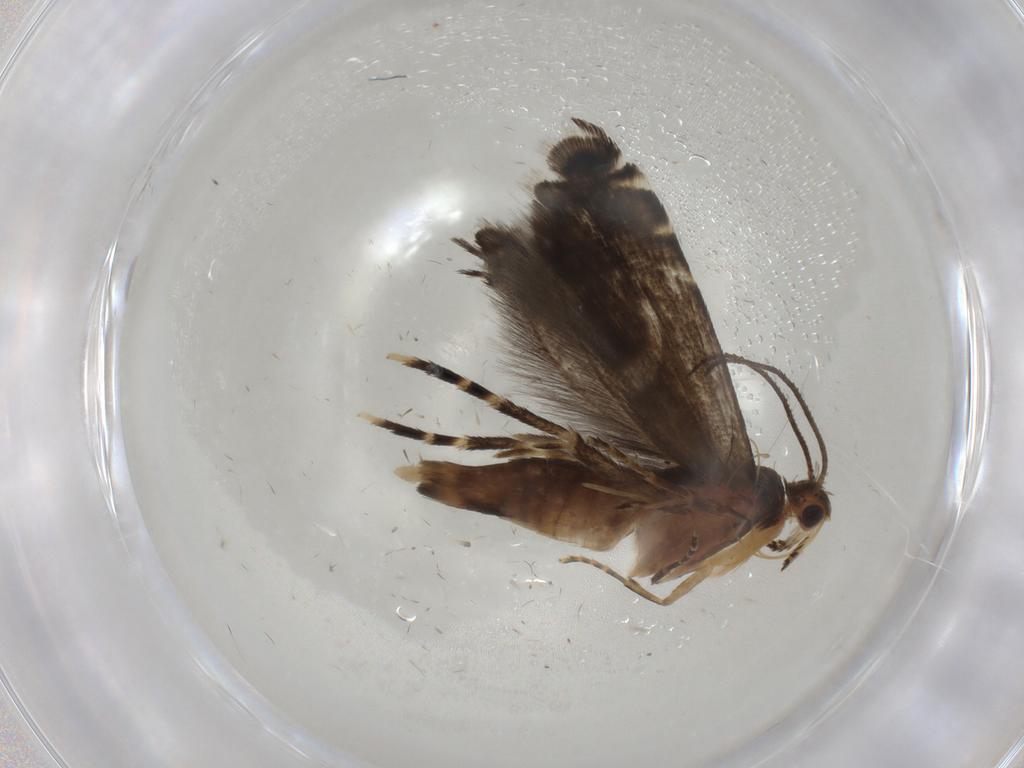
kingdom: Animalia
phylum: Arthropoda
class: Insecta
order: Lepidoptera
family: Glyphipterigidae
